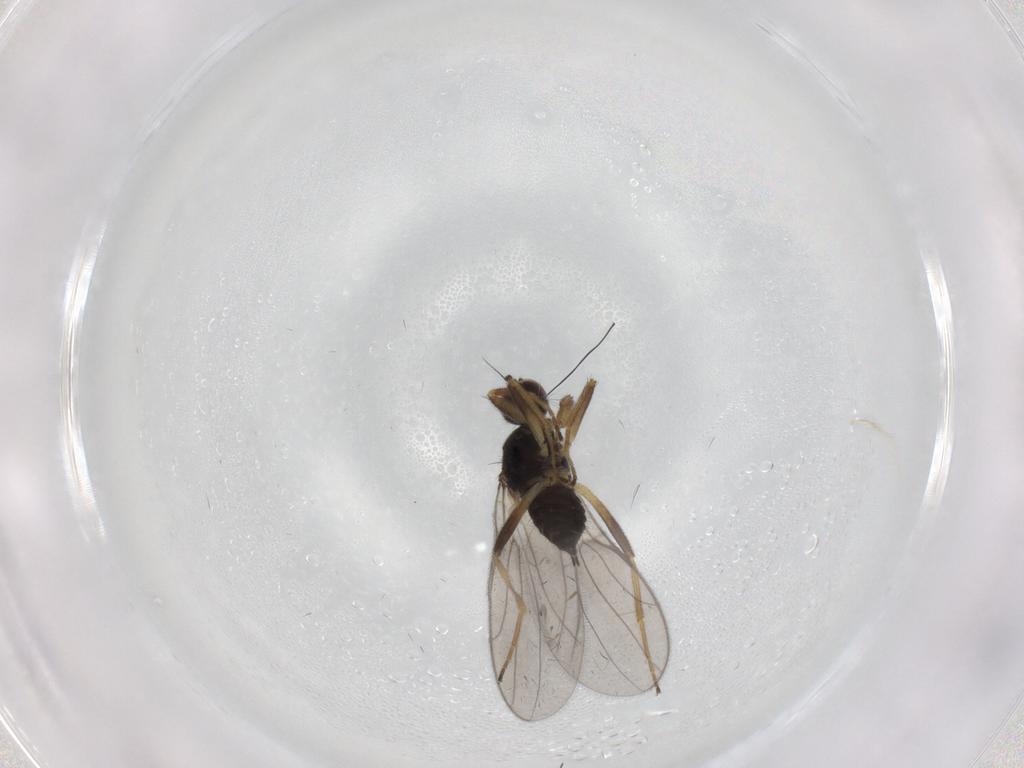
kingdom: Animalia
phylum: Arthropoda
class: Insecta
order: Diptera
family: Hybotidae
